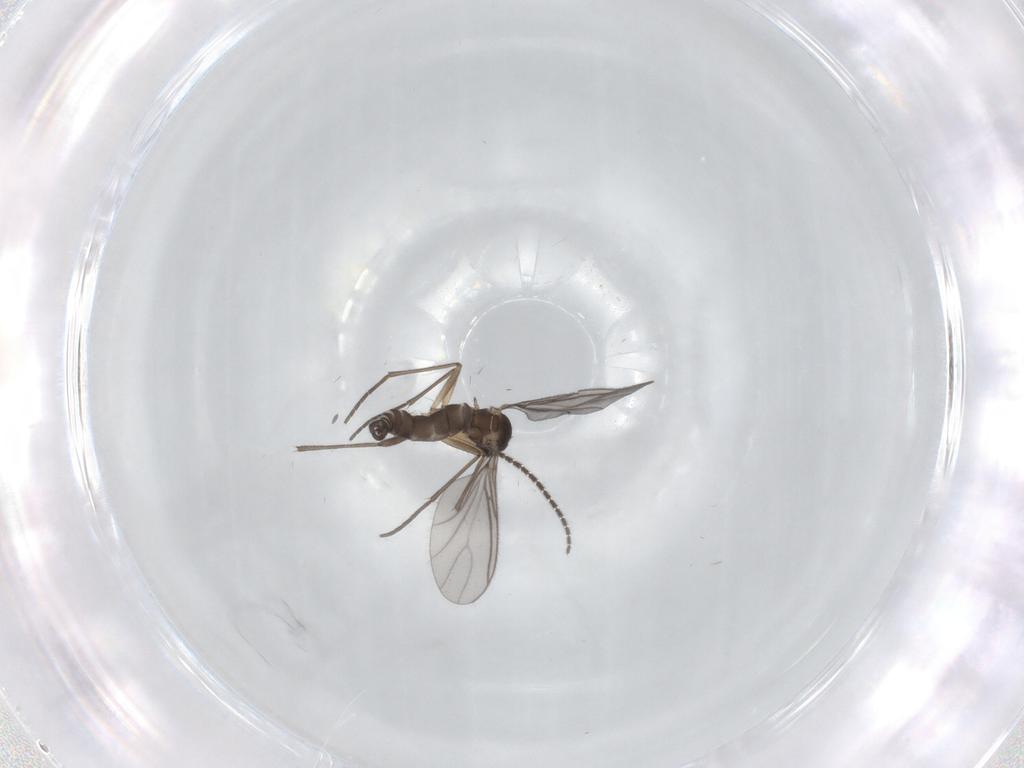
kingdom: Animalia
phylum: Arthropoda
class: Insecta
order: Diptera
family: Sciaridae
